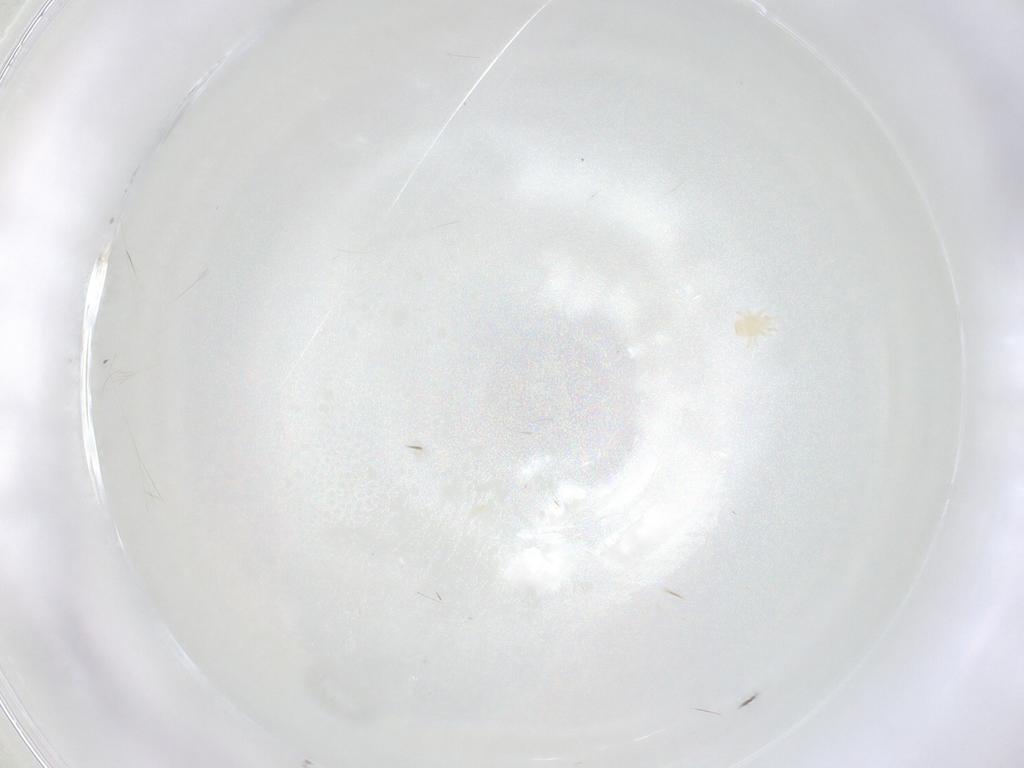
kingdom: Animalia
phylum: Arthropoda
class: Arachnida
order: Mesostigmata
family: Halolaelapidae
